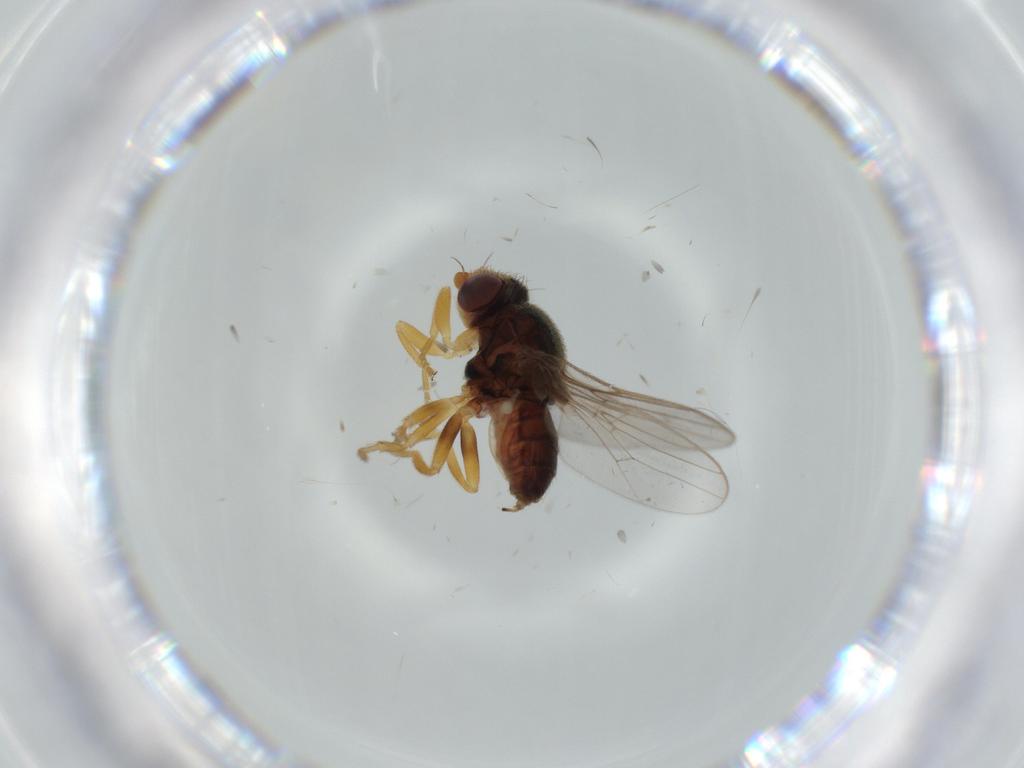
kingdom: Animalia
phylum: Arthropoda
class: Insecta
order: Diptera
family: Chloropidae
